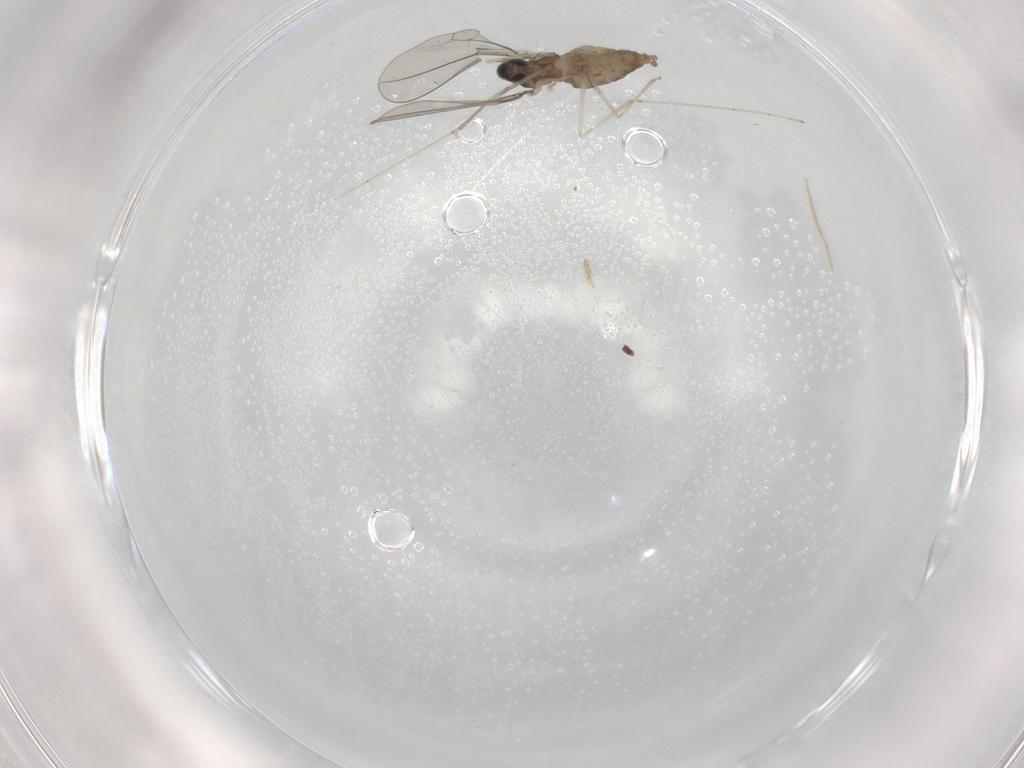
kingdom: Animalia
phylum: Arthropoda
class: Insecta
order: Diptera
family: Cecidomyiidae
